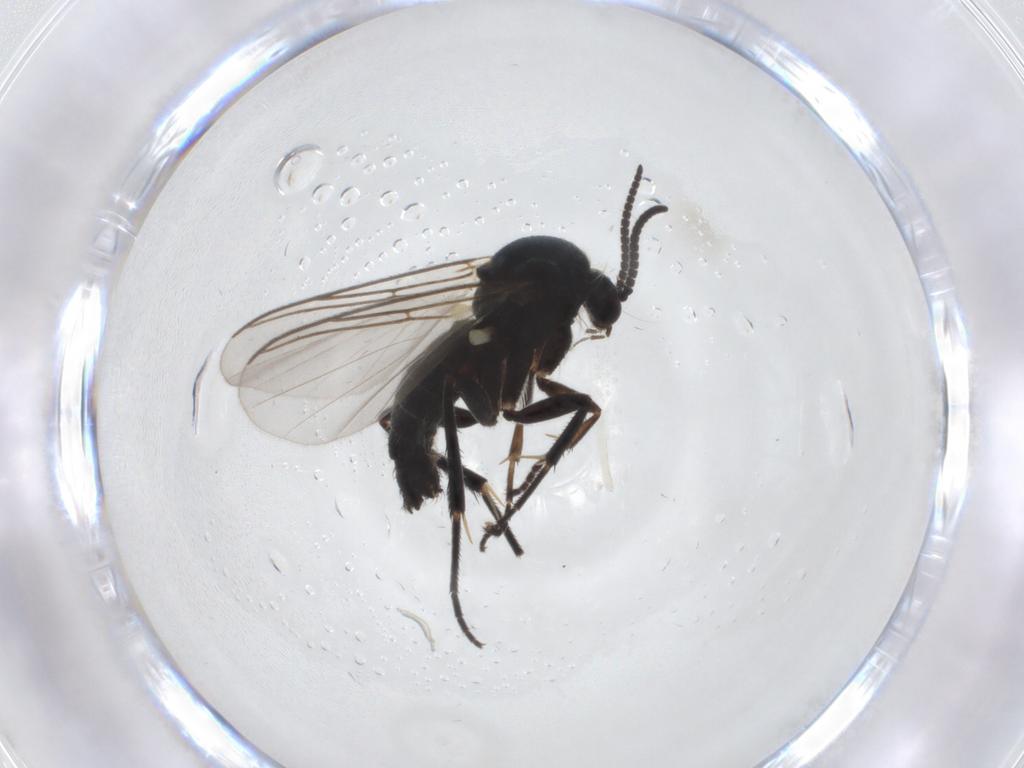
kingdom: Animalia
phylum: Arthropoda
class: Insecta
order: Diptera
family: Mycetophilidae
